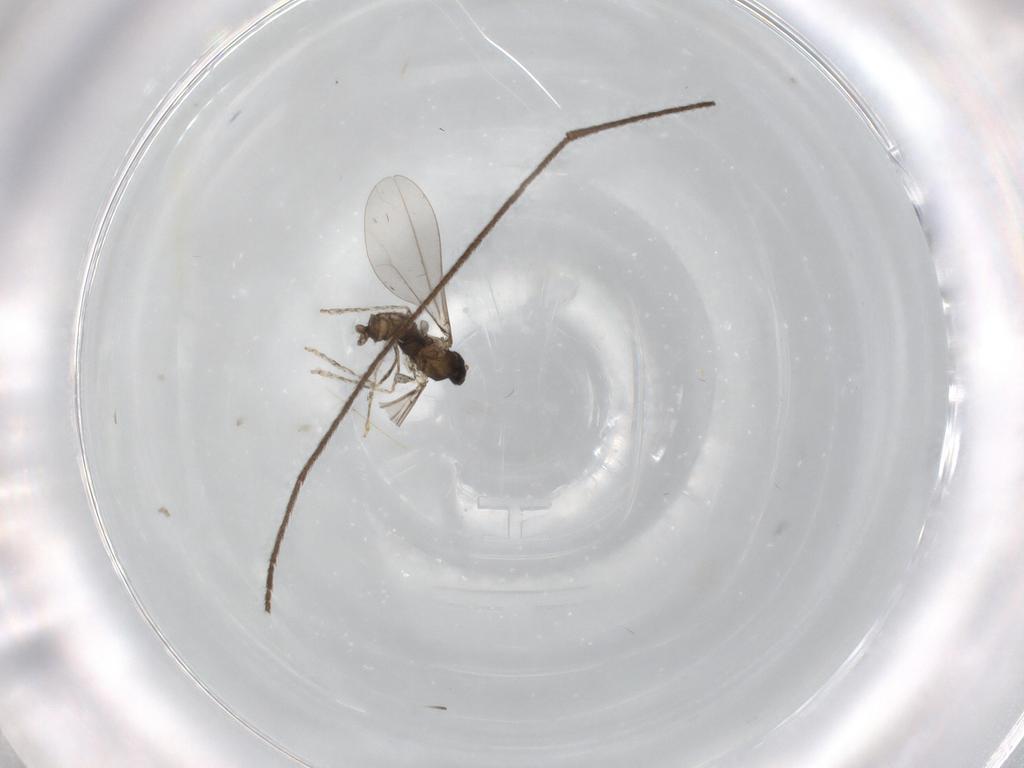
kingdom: Animalia
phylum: Arthropoda
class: Insecta
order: Diptera
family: Cecidomyiidae
